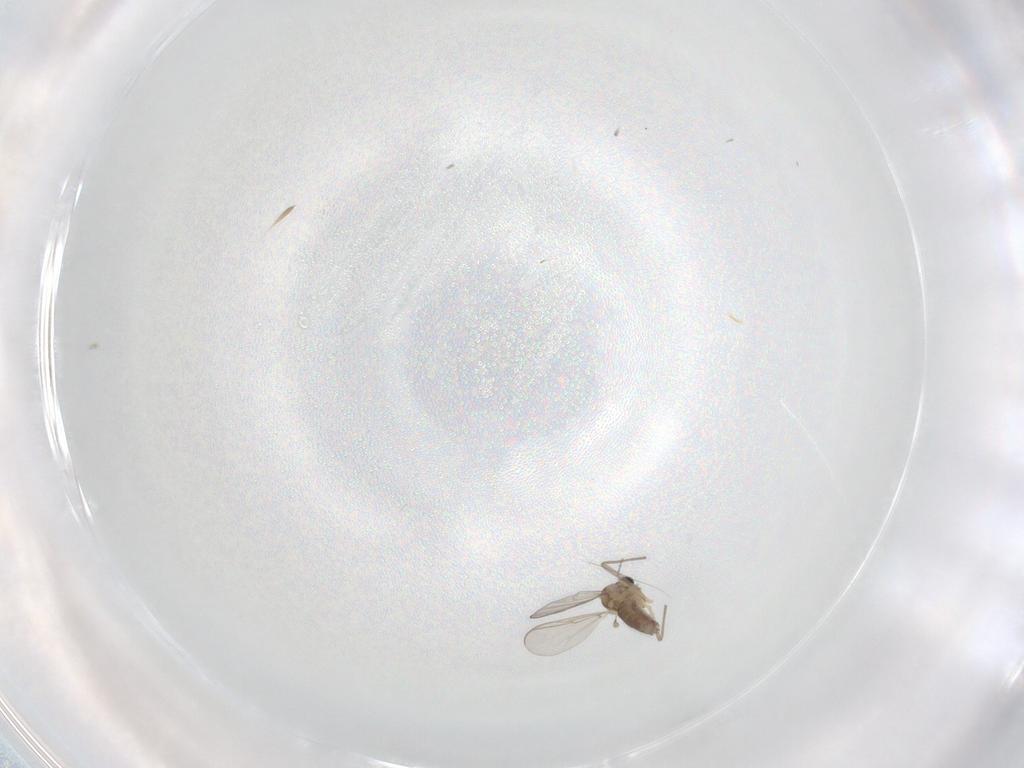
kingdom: Animalia
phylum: Arthropoda
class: Insecta
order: Diptera
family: Chironomidae
